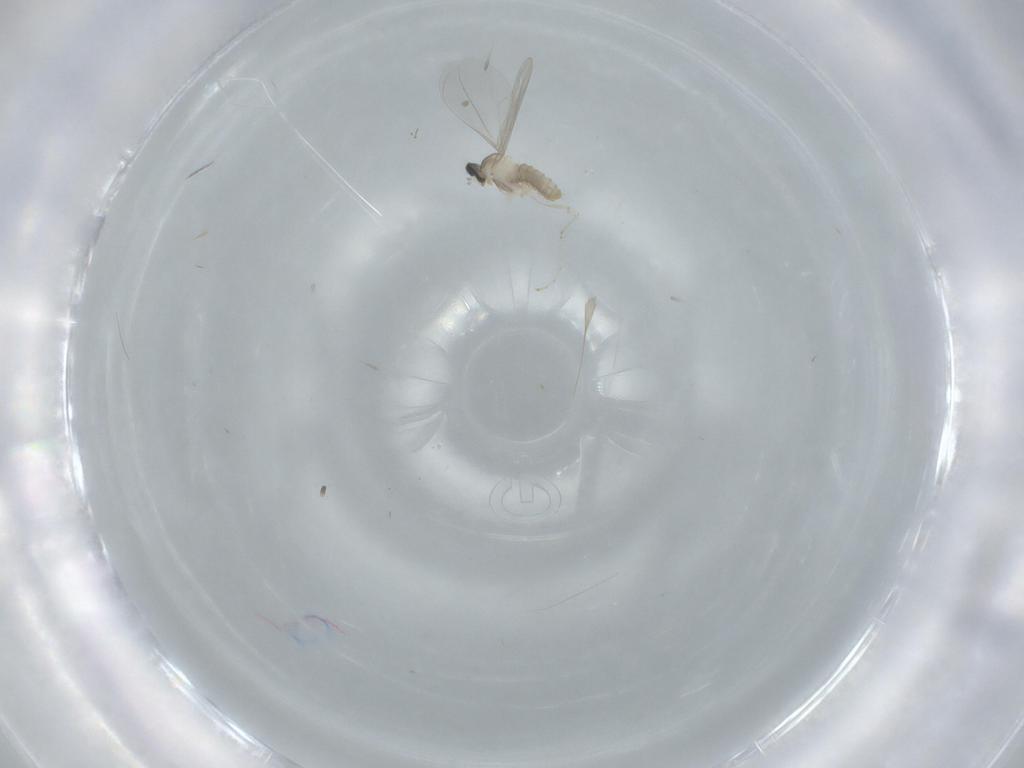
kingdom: Animalia
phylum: Arthropoda
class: Insecta
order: Diptera
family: Cecidomyiidae
